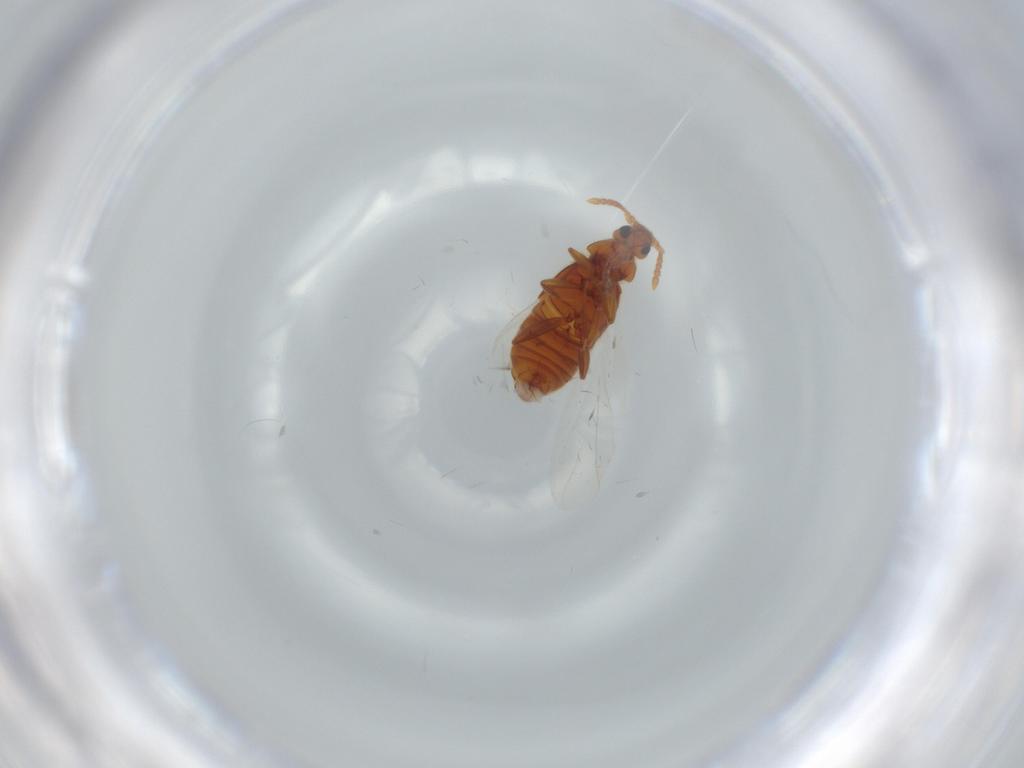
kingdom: Animalia
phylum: Arthropoda
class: Insecta
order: Coleoptera
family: Staphylinidae
